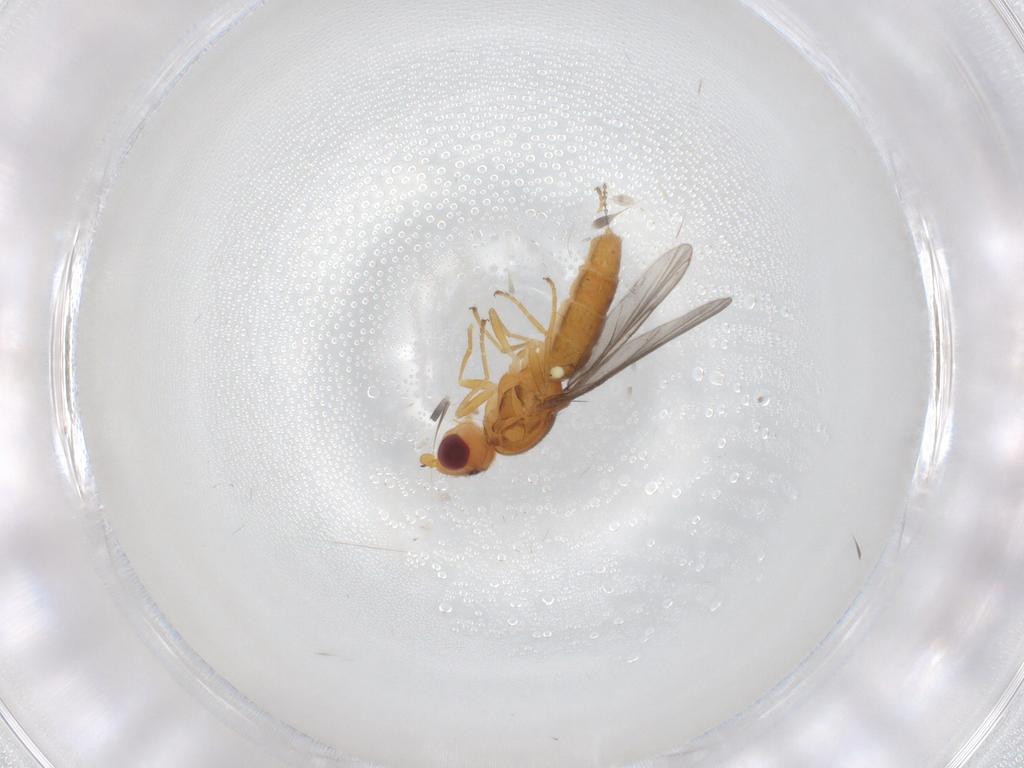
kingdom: Animalia
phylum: Arthropoda
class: Insecta
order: Diptera
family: Chloropidae
